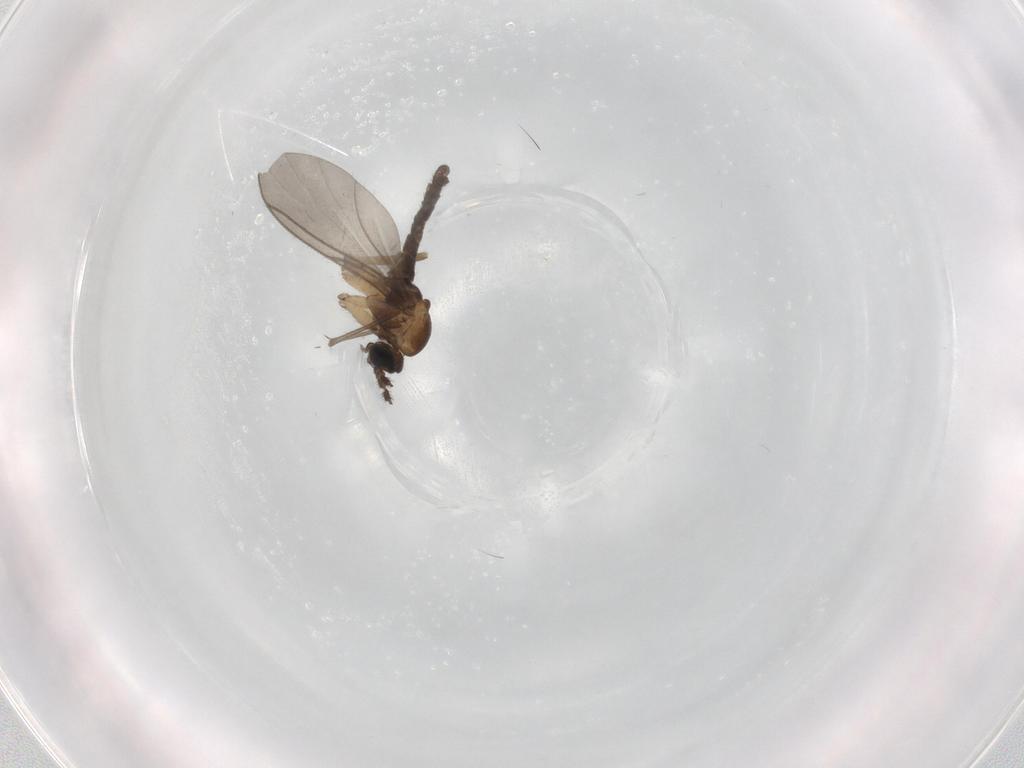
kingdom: Animalia
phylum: Arthropoda
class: Insecta
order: Diptera
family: Sciaridae
